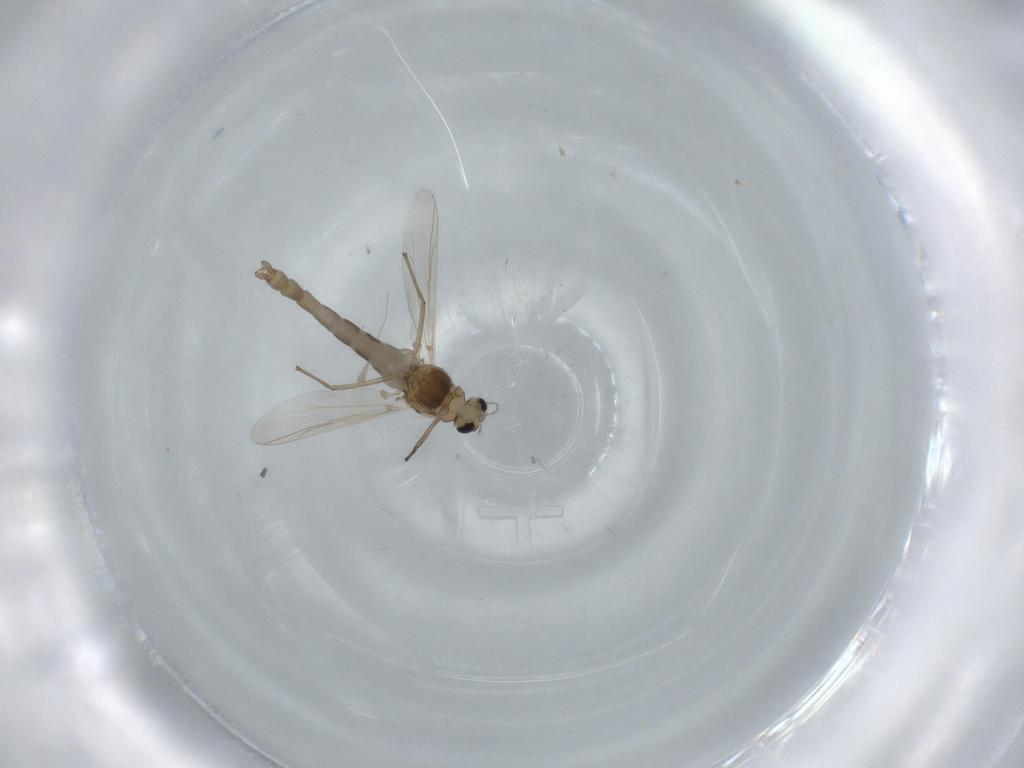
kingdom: Animalia
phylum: Arthropoda
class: Insecta
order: Diptera
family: Chironomidae
